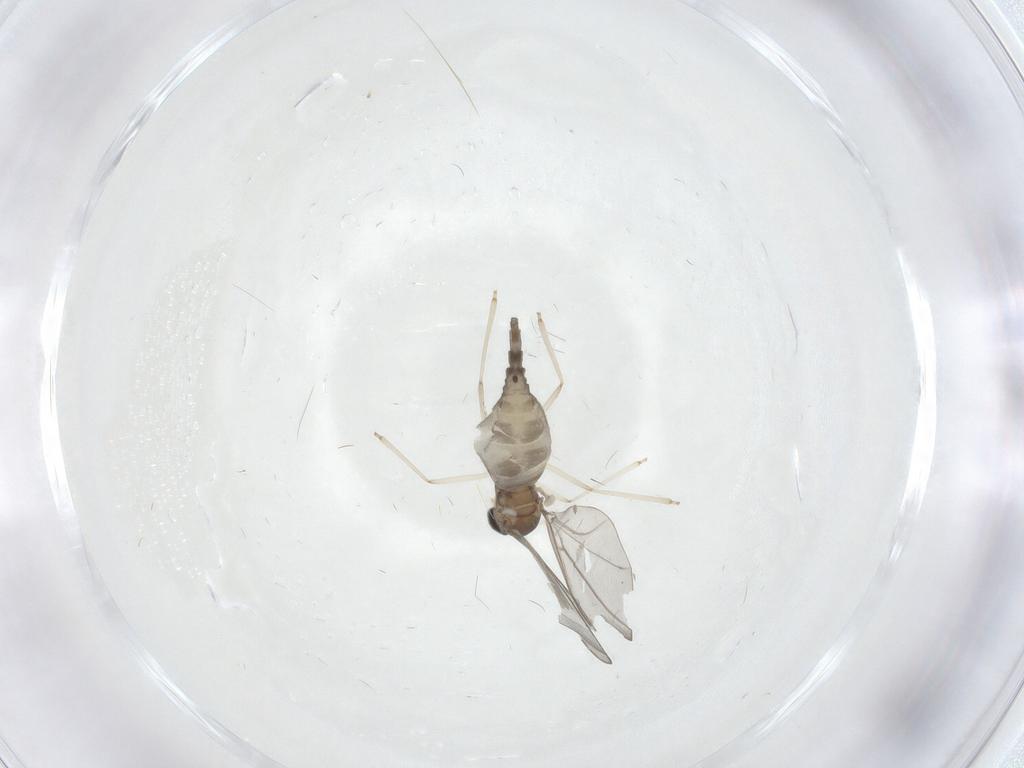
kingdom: Animalia
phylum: Arthropoda
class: Insecta
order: Diptera
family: Cecidomyiidae
